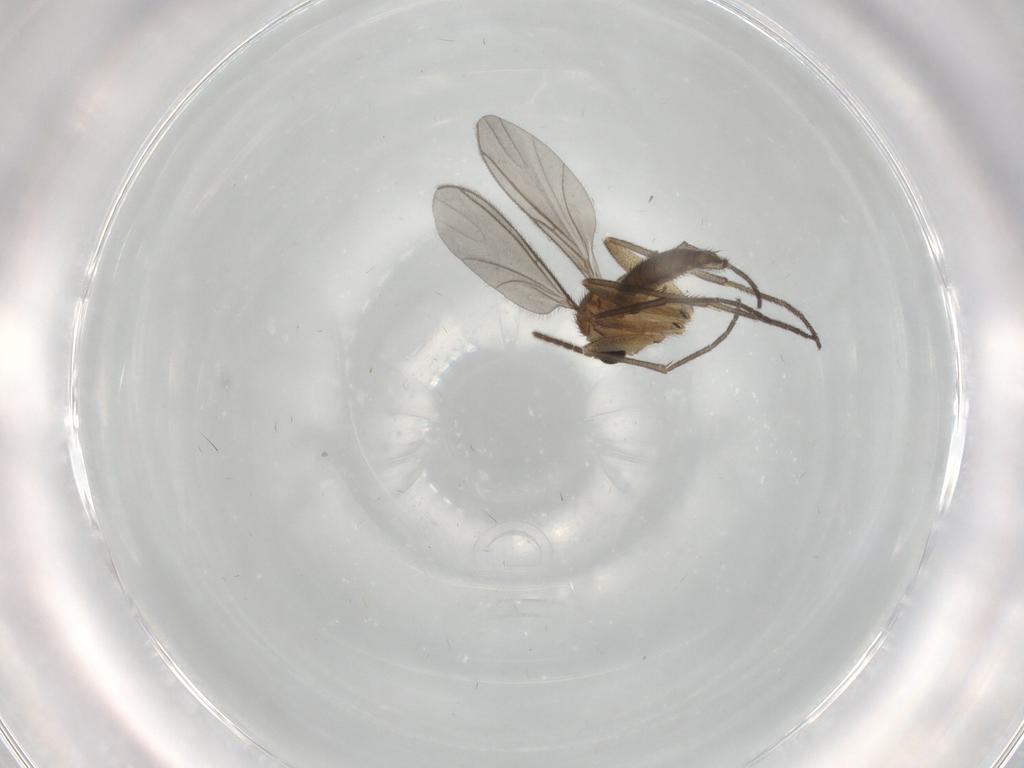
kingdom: Animalia
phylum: Arthropoda
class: Insecta
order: Diptera
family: Sciaridae
